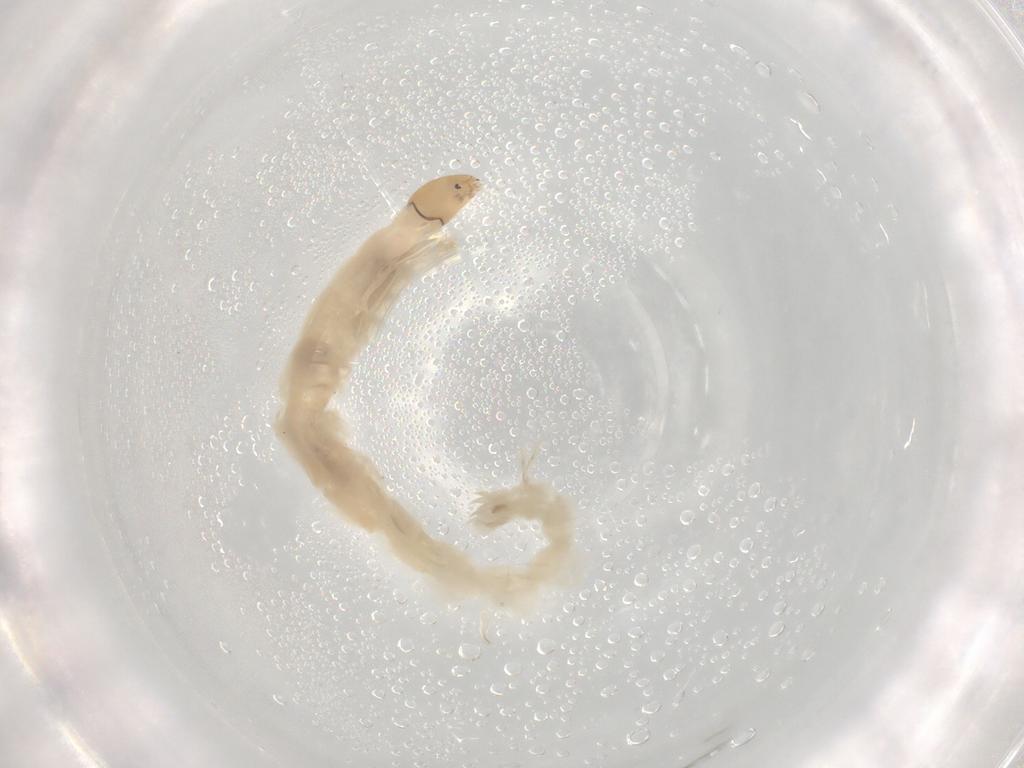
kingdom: Animalia
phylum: Arthropoda
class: Insecta
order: Diptera
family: Chironomidae
